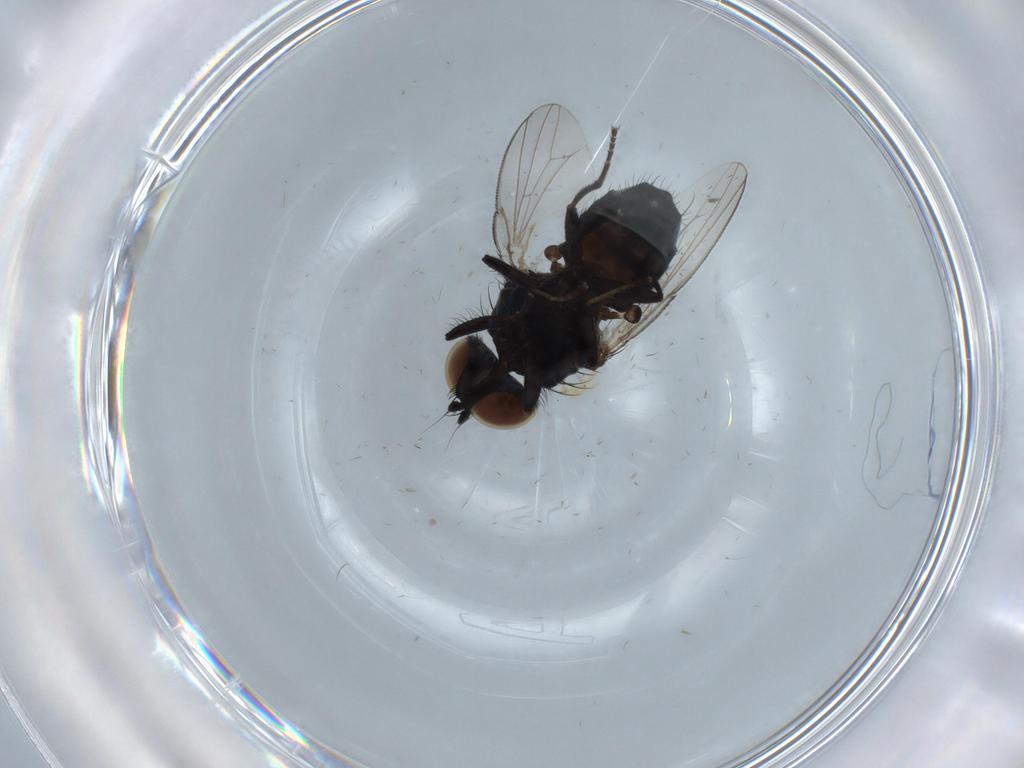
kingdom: Animalia
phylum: Arthropoda
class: Insecta
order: Diptera
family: Milichiidae
